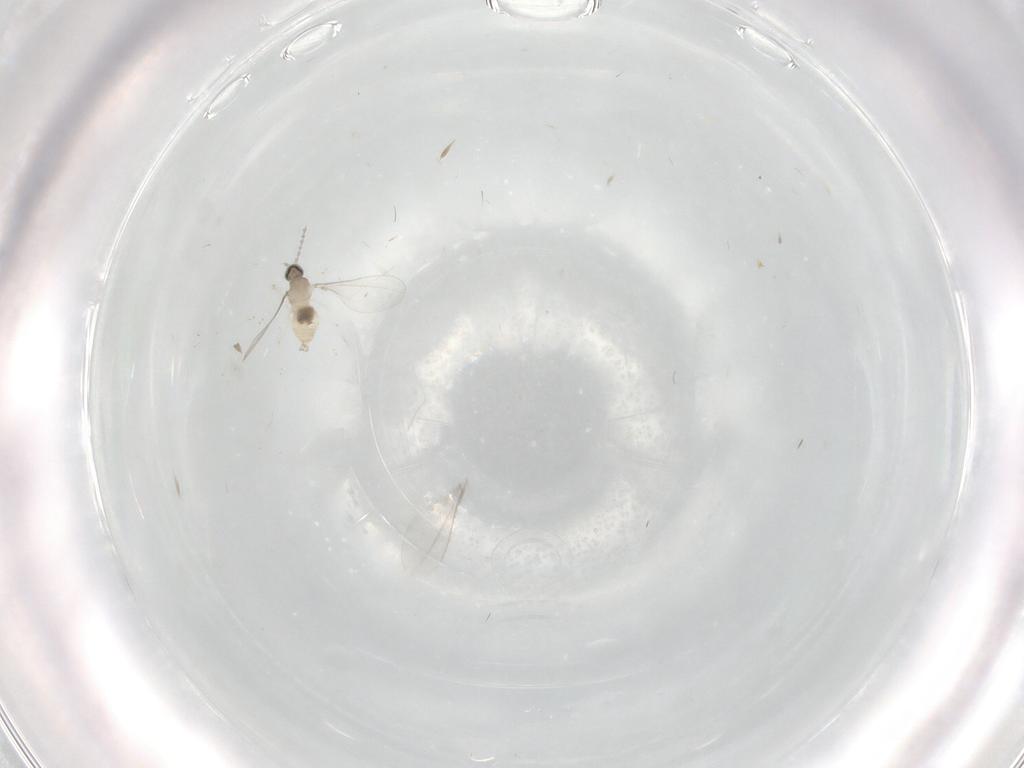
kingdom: Animalia
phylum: Arthropoda
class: Insecta
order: Diptera
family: Cecidomyiidae
